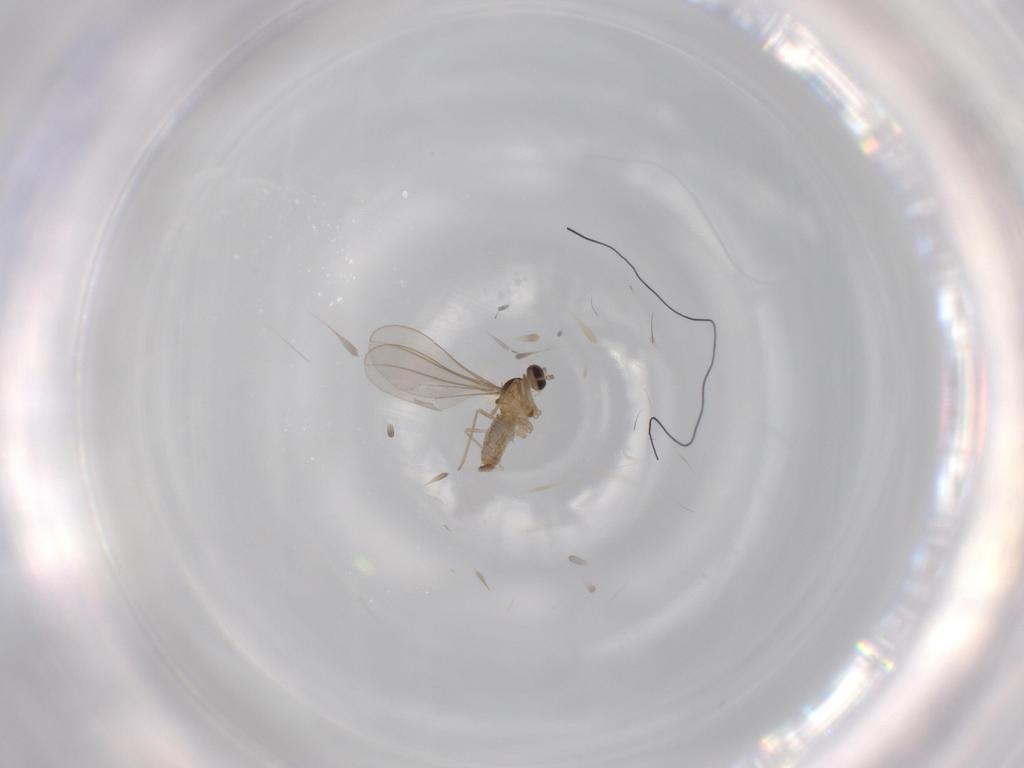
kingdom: Animalia
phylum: Arthropoda
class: Insecta
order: Diptera
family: Cecidomyiidae
